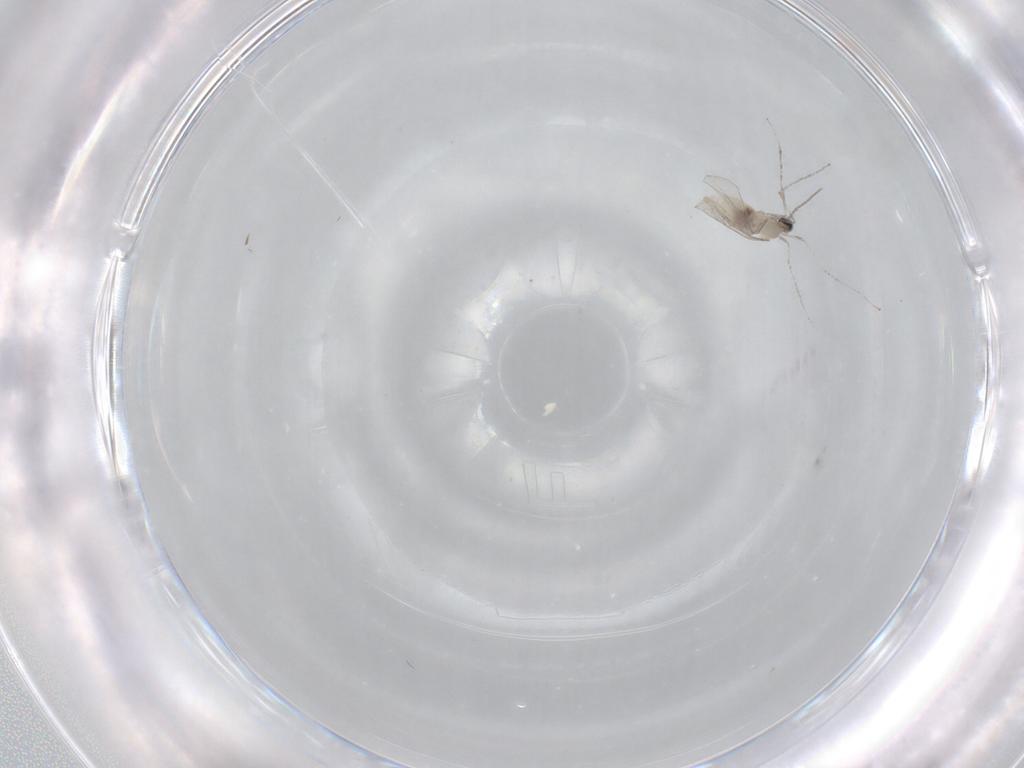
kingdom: Animalia
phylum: Arthropoda
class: Insecta
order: Diptera
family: Cecidomyiidae
